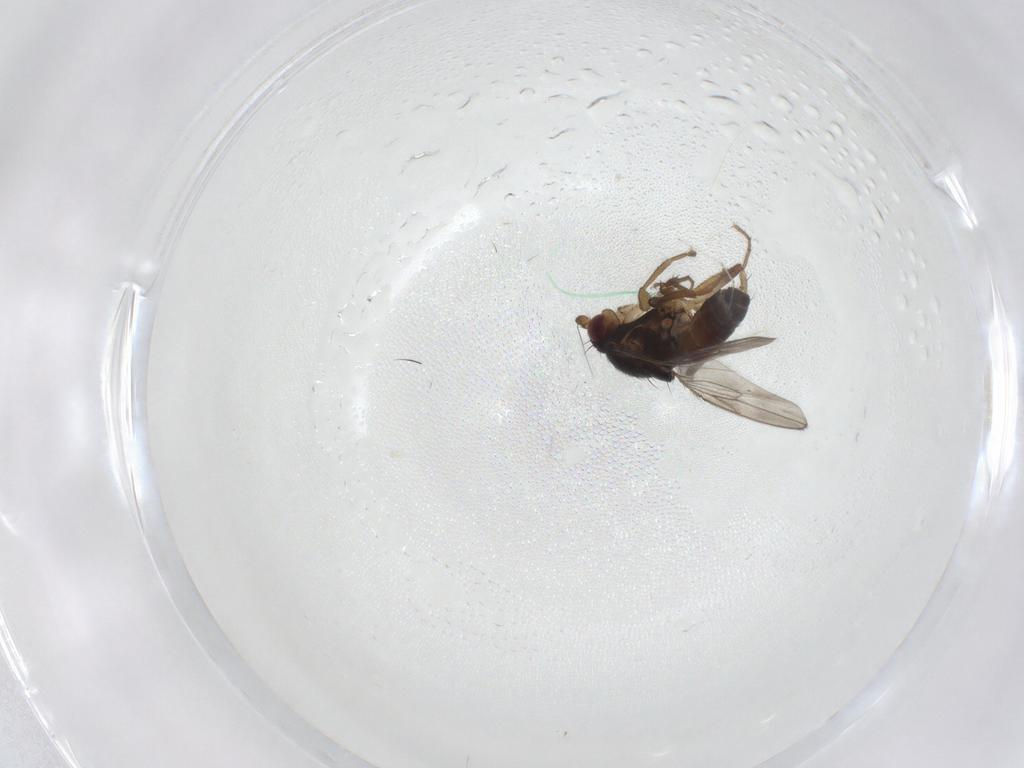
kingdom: Animalia
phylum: Arthropoda
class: Insecta
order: Diptera
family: Sphaeroceridae
